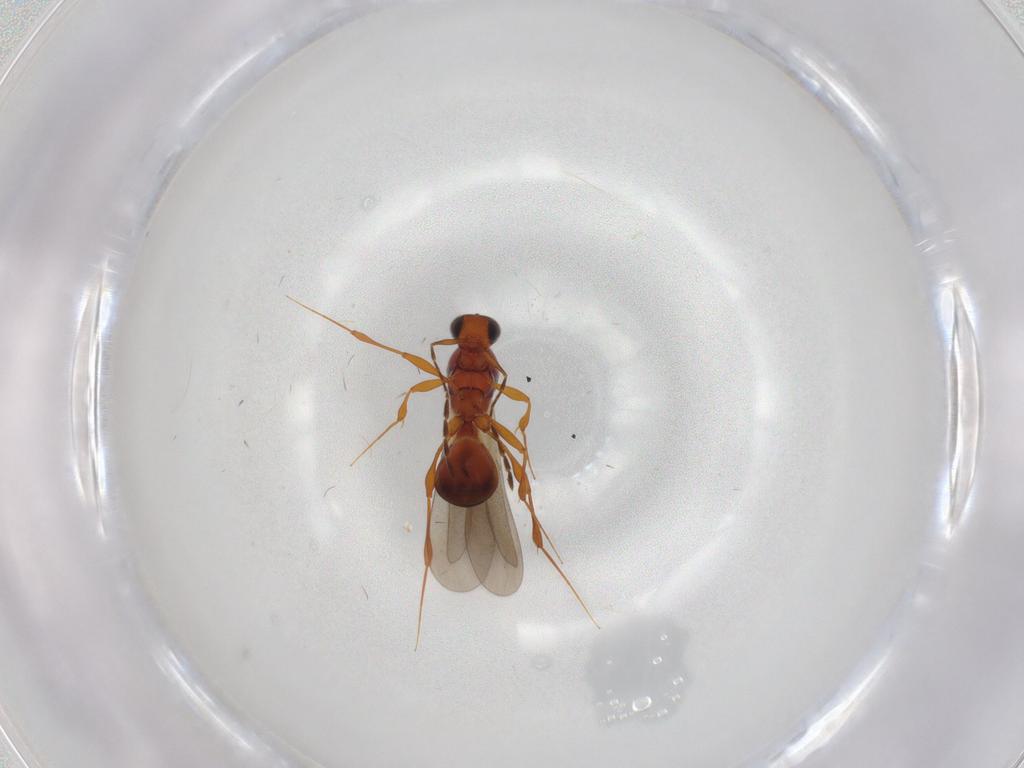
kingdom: Animalia
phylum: Arthropoda
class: Insecta
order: Hymenoptera
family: Platygastridae
